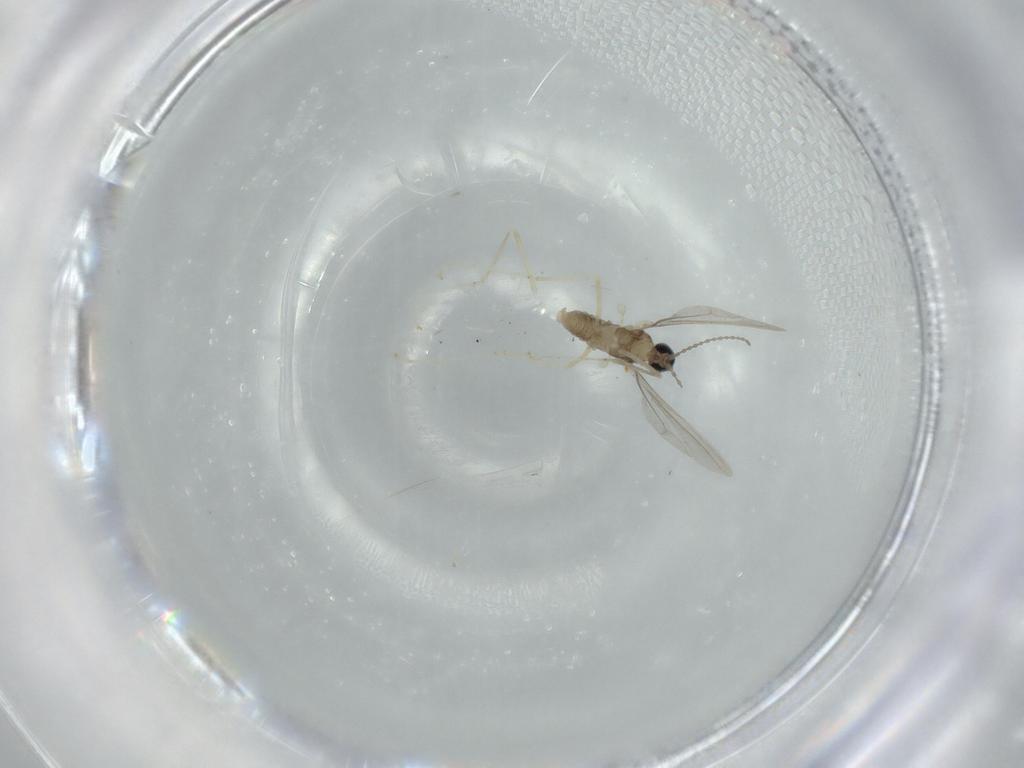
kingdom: Animalia
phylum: Arthropoda
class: Insecta
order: Diptera
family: Cecidomyiidae
